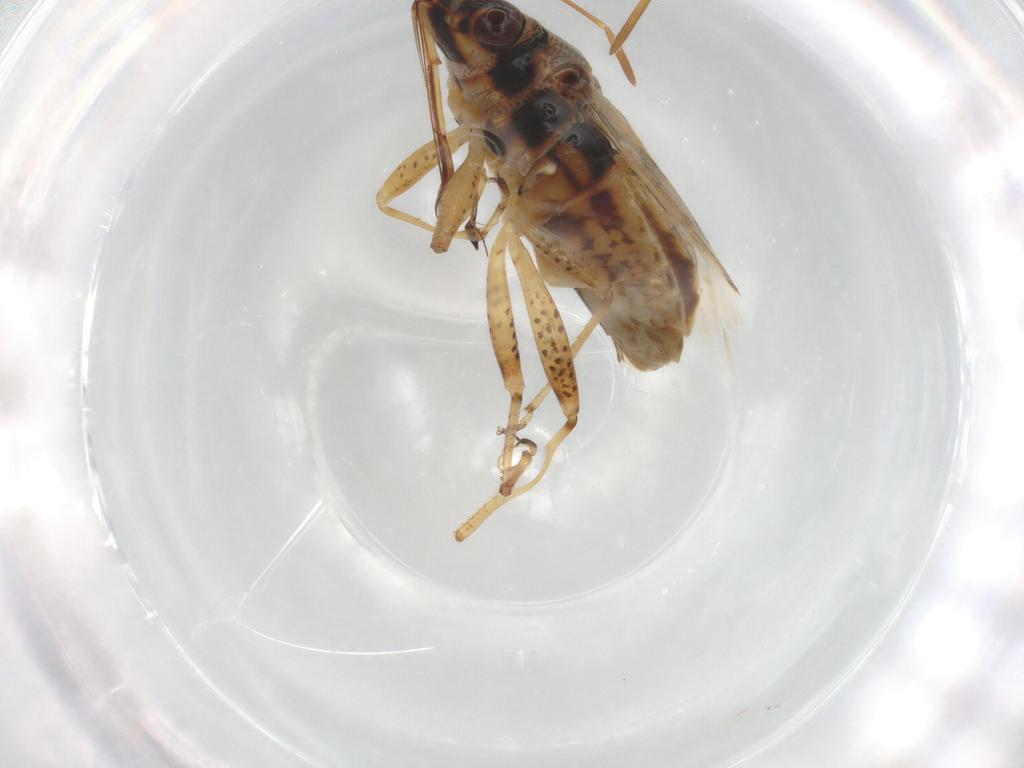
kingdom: Animalia
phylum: Arthropoda
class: Insecta
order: Hemiptera
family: Lygaeidae
